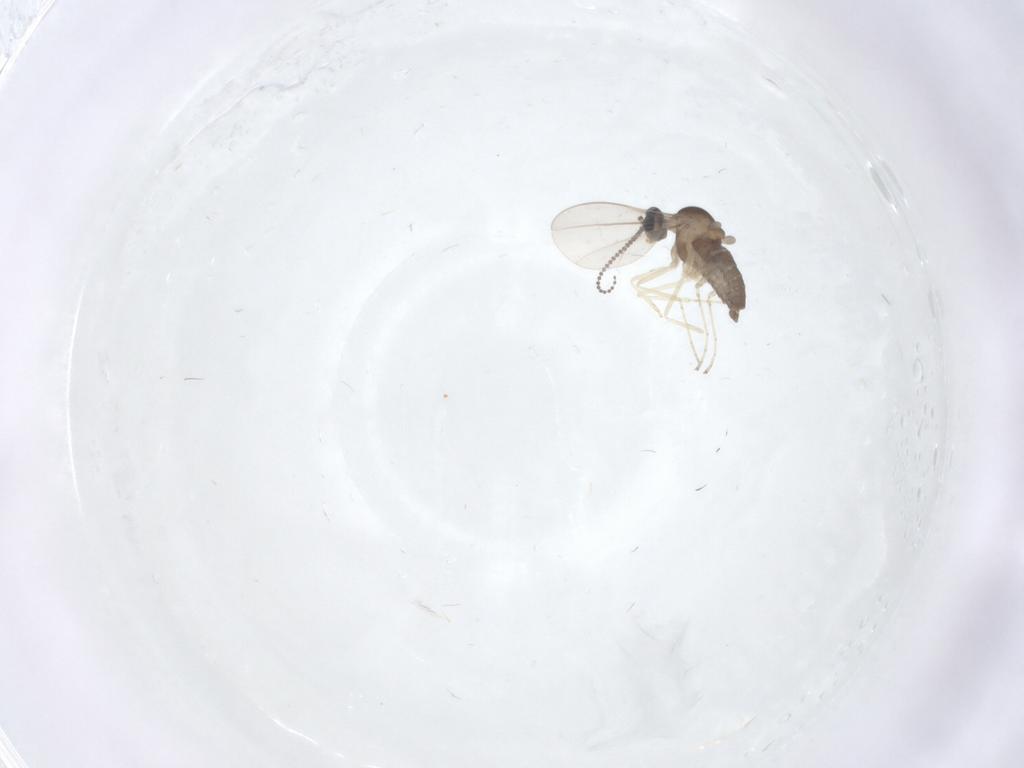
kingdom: Animalia
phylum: Arthropoda
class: Insecta
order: Diptera
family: Cecidomyiidae
